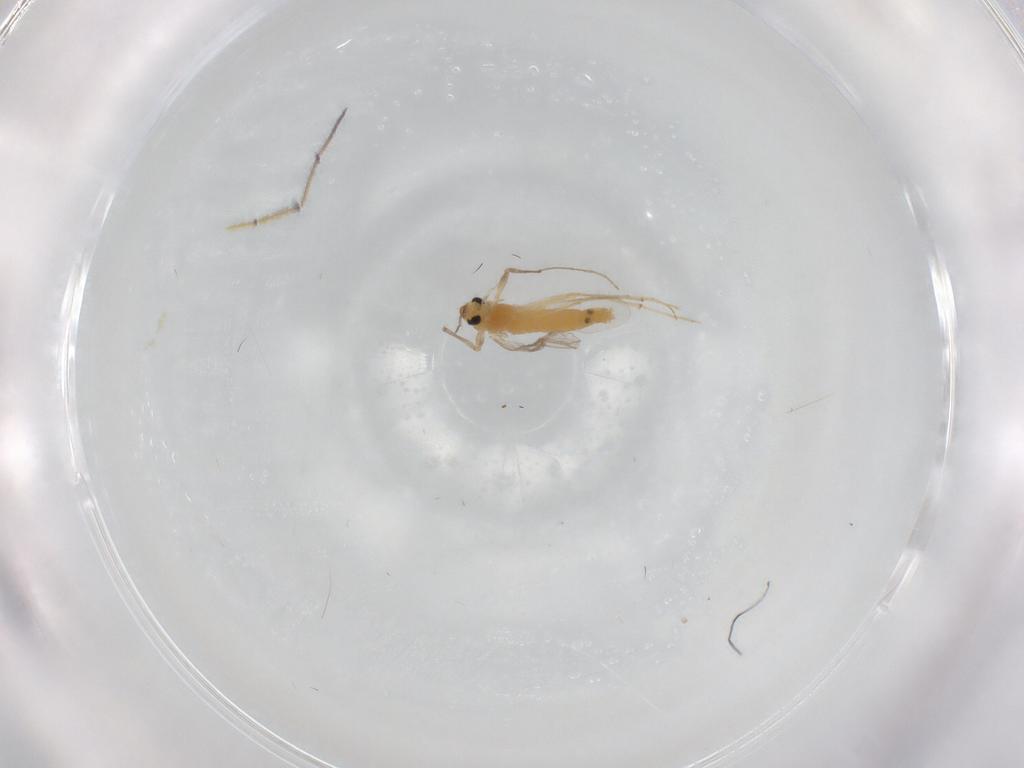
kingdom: Animalia
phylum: Arthropoda
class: Insecta
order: Diptera
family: Chironomidae
